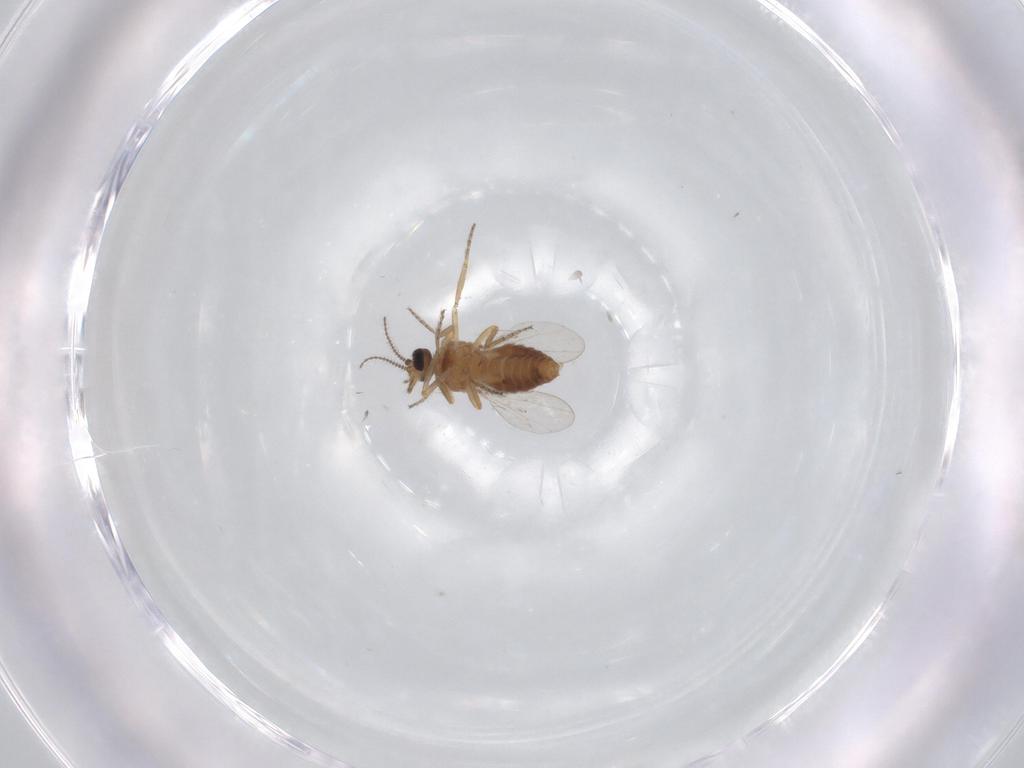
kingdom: Animalia
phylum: Arthropoda
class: Insecta
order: Diptera
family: Ceratopogonidae
